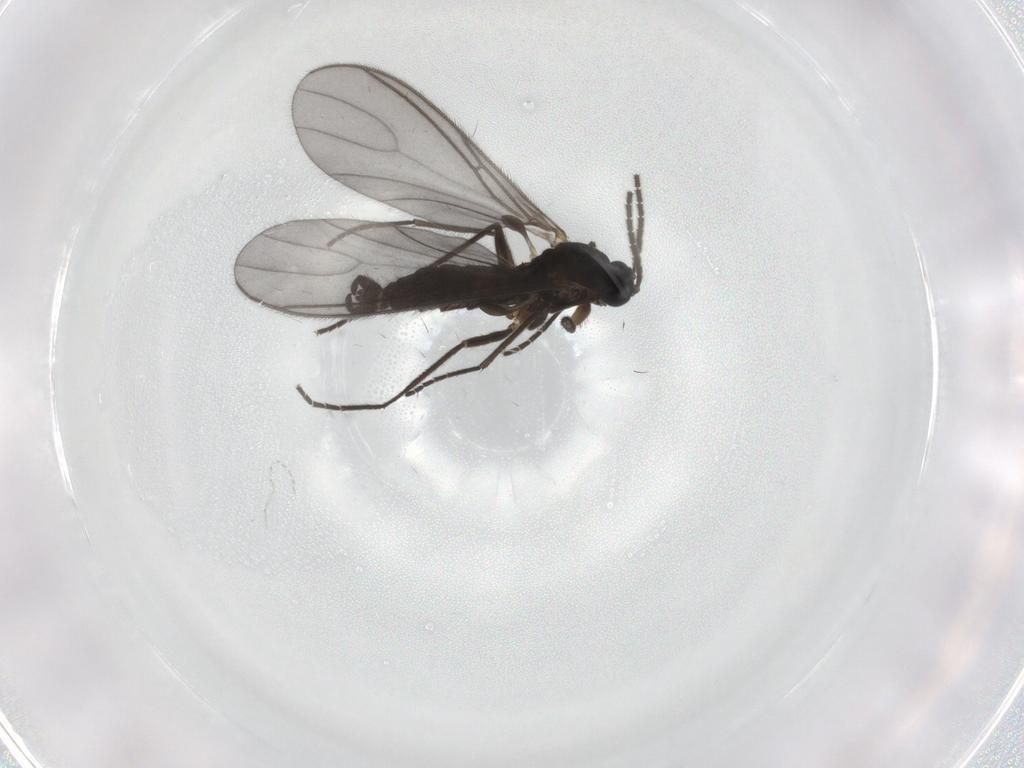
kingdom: Animalia
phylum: Arthropoda
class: Insecta
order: Diptera
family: Sciaridae
